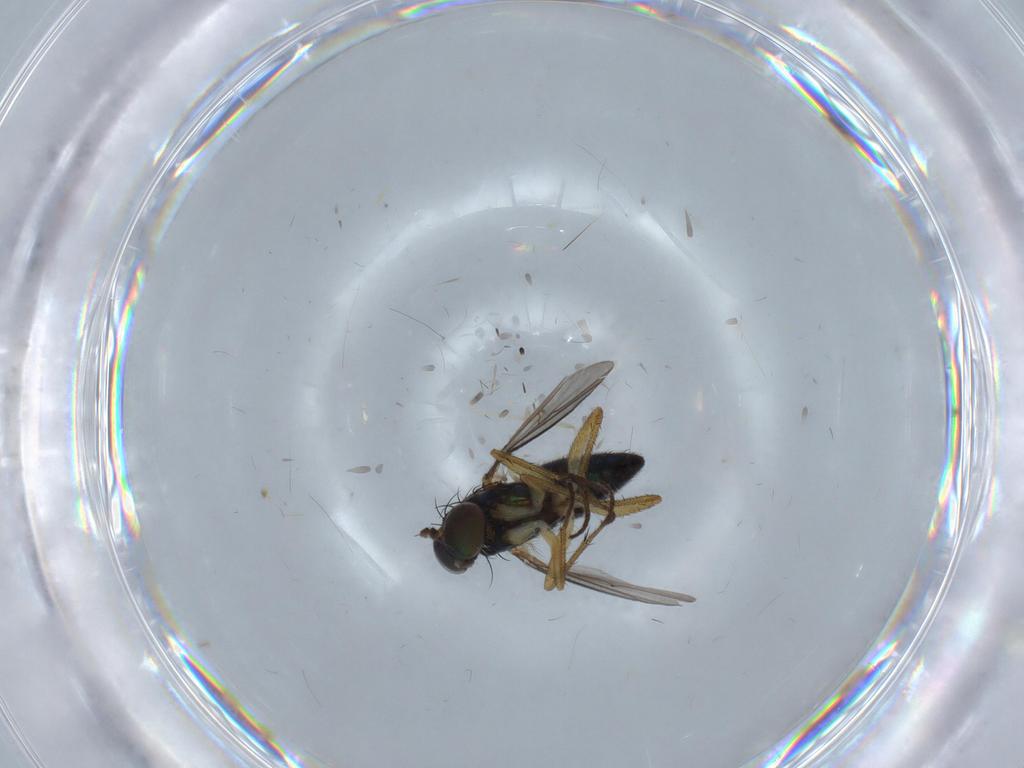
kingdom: Animalia
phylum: Arthropoda
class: Insecta
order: Diptera
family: Dolichopodidae
